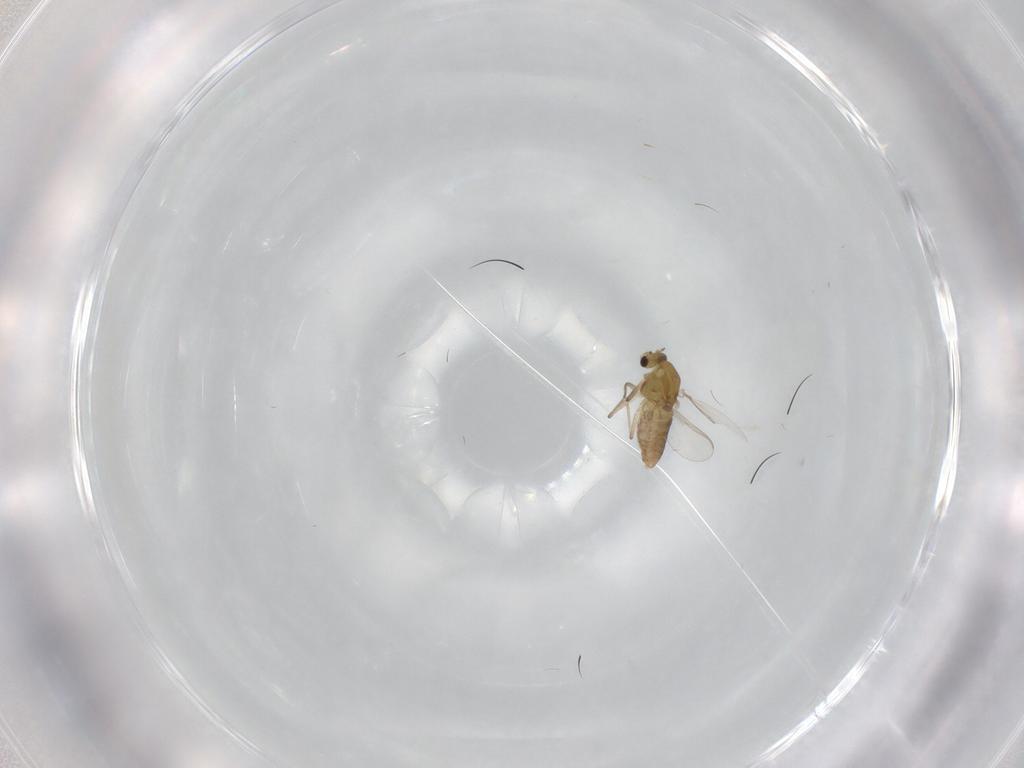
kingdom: Animalia
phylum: Arthropoda
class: Insecta
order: Diptera
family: Chironomidae
